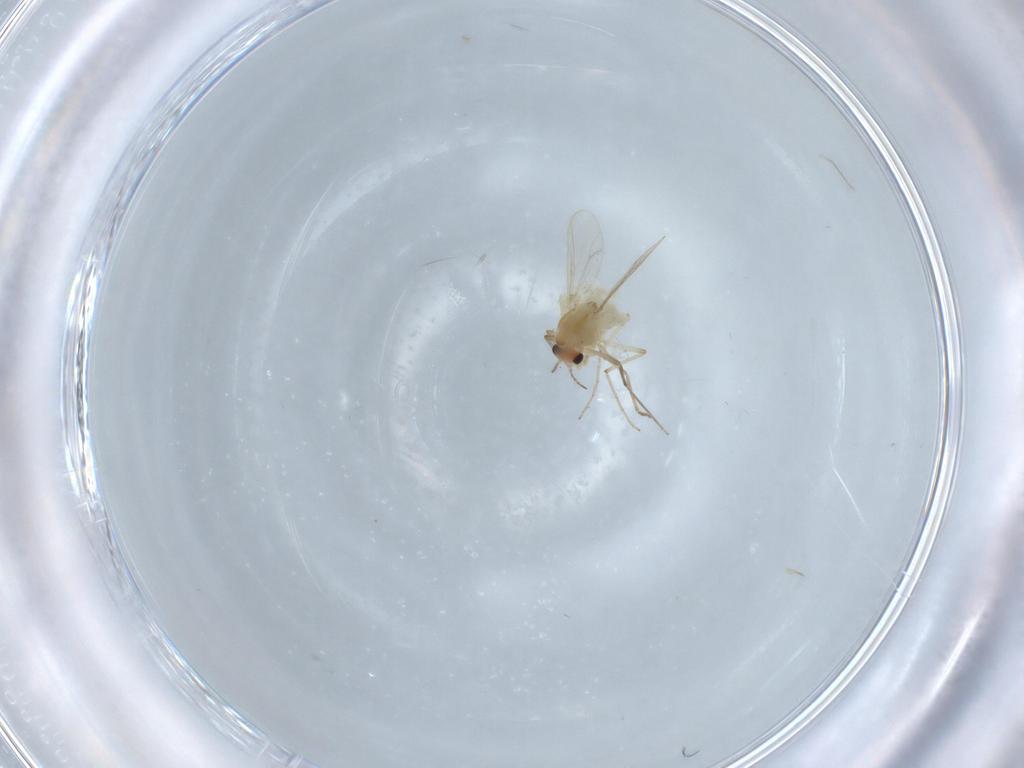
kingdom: Animalia
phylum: Arthropoda
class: Insecta
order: Diptera
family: Chironomidae
